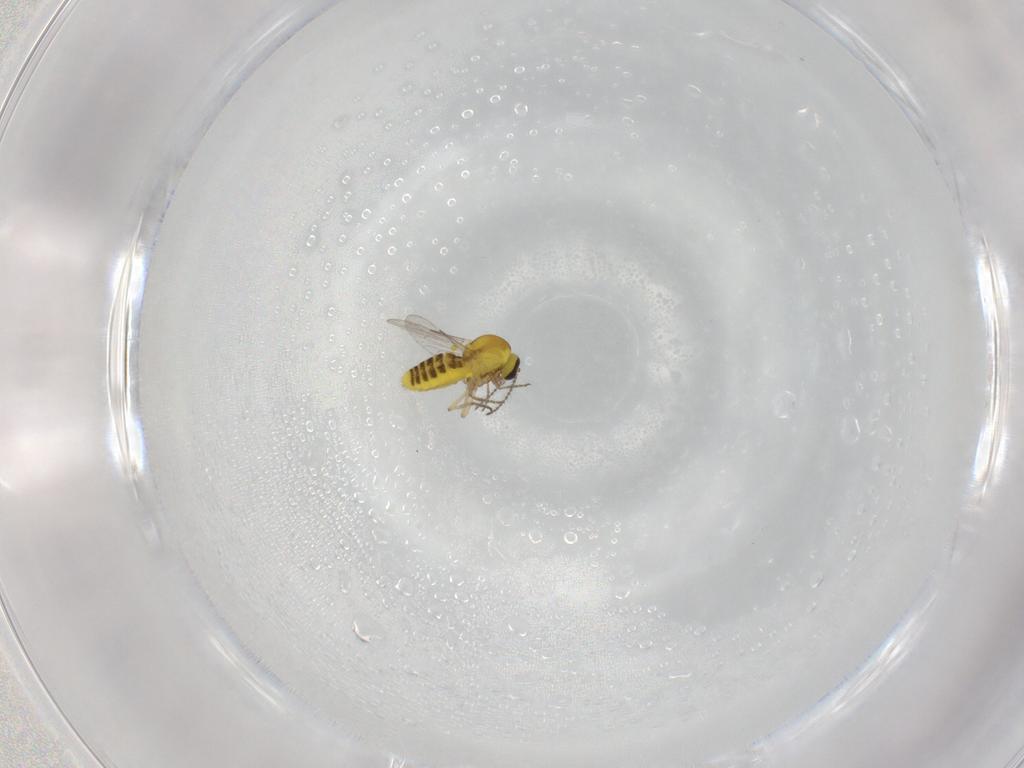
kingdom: Animalia
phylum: Arthropoda
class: Insecta
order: Diptera
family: Ceratopogonidae
